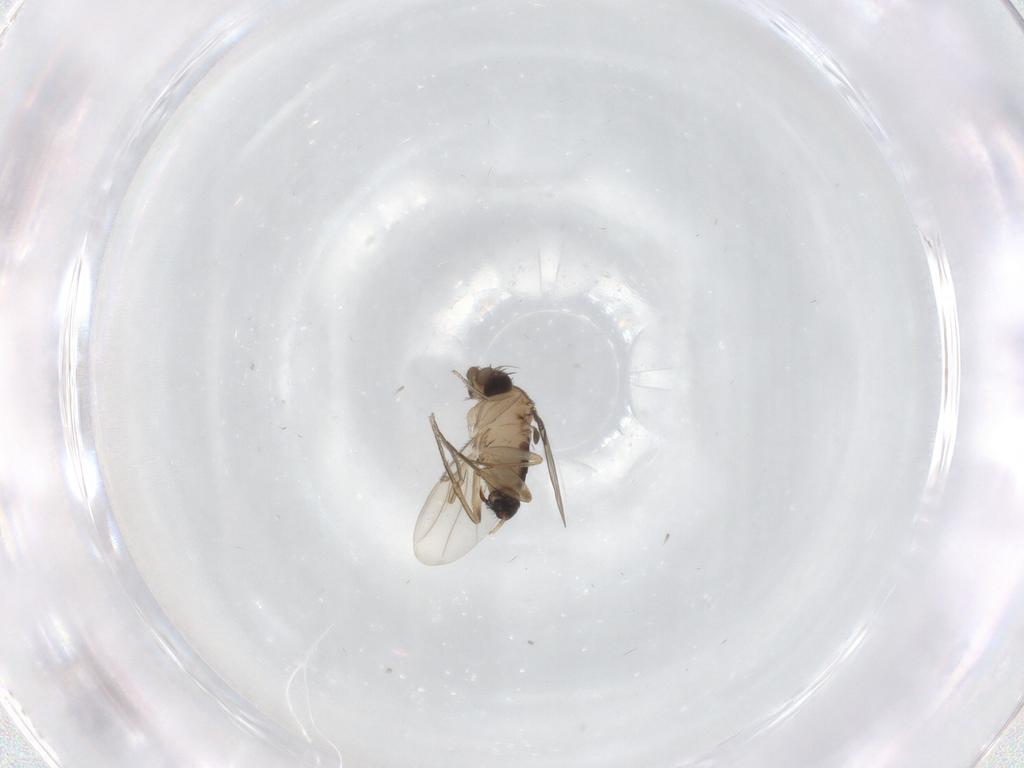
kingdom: Animalia
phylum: Arthropoda
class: Insecta
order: Diptera
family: Phoridae
